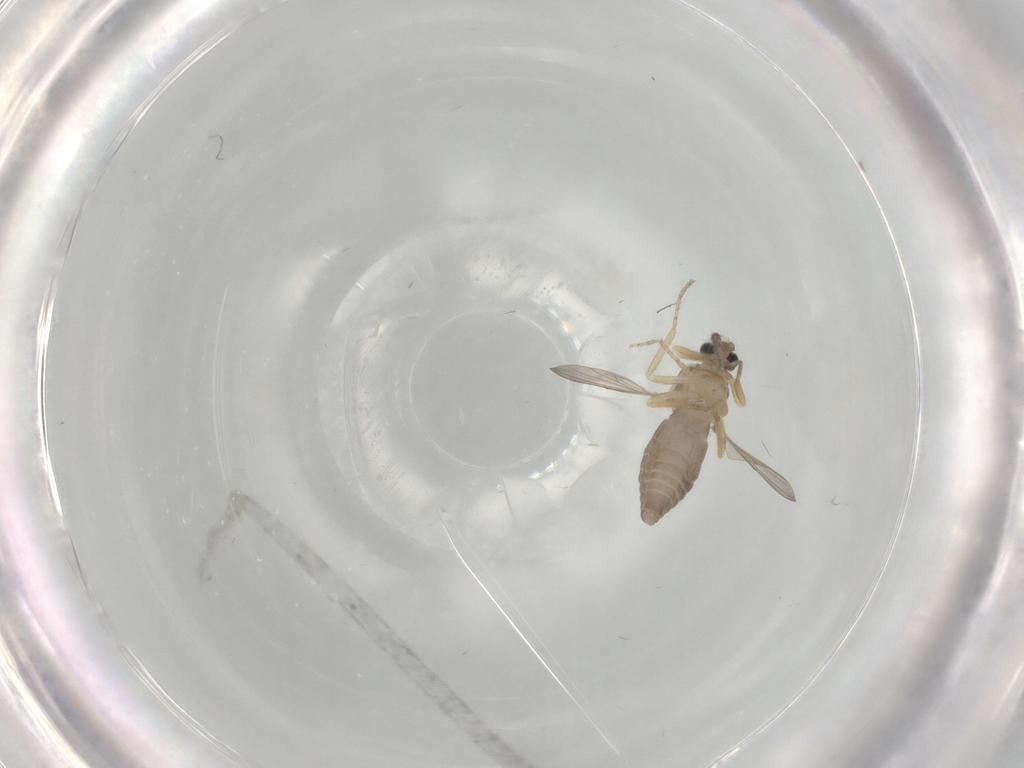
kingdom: Animalia
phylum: Arthropoda
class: Insecta
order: Diptera
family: Ceratopogonidae
